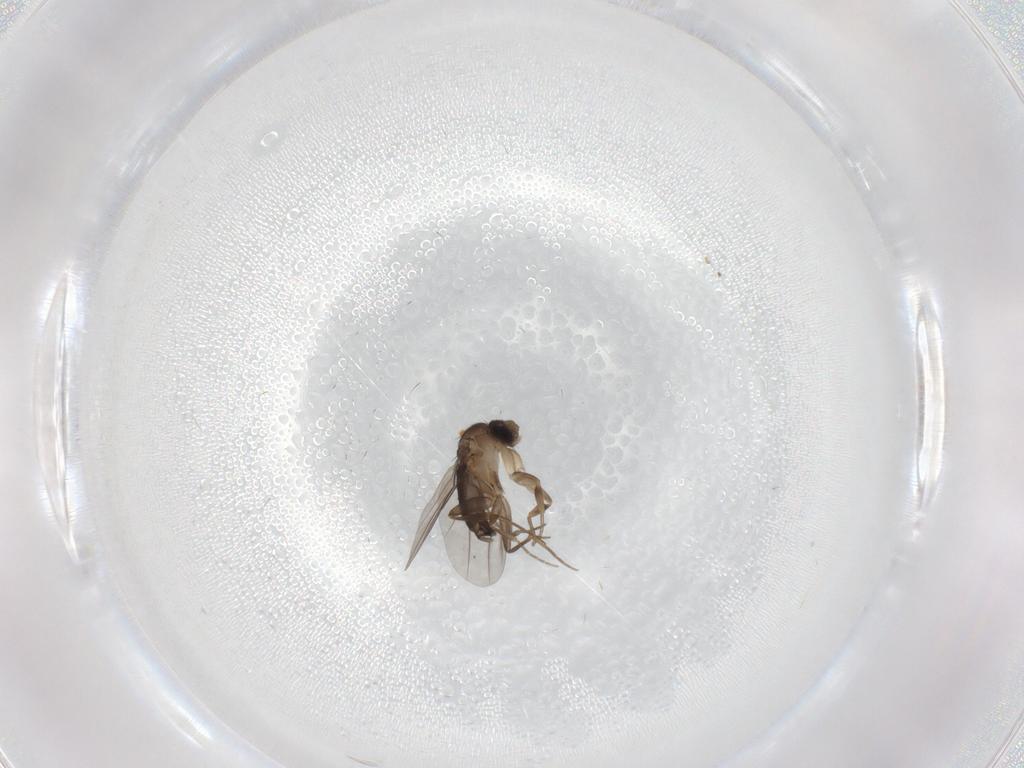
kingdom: Animalia
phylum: Arthropoda
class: Insecta
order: Diptera
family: Phoridae
